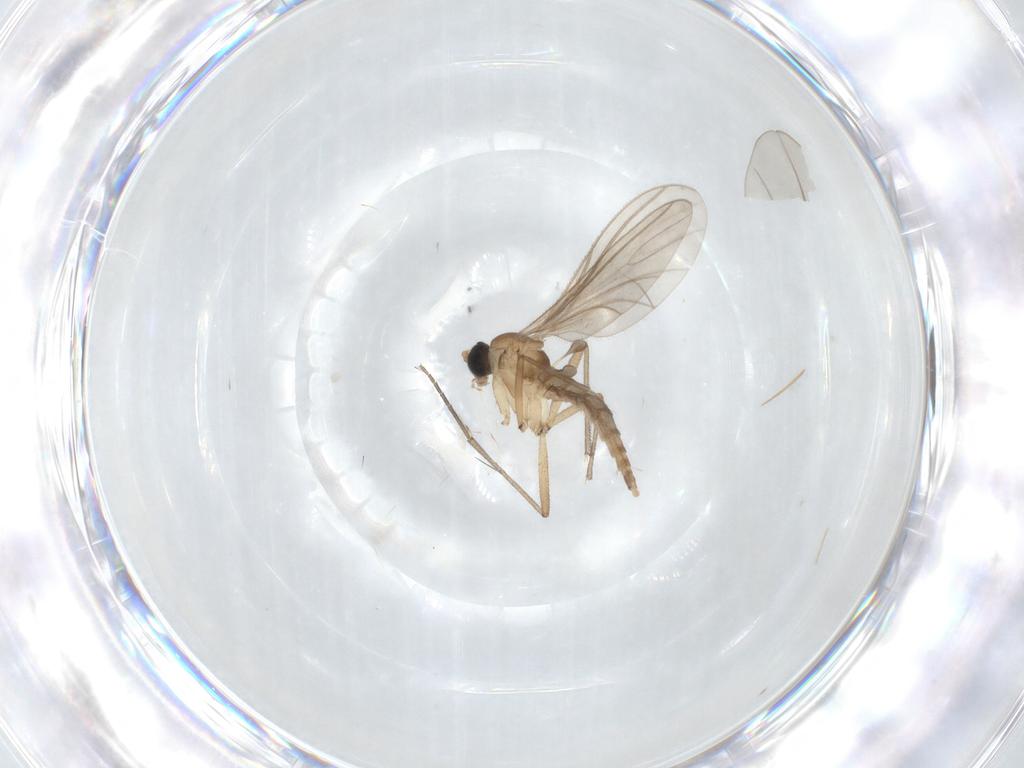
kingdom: Animalia
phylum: Arthropoda
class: Insecta
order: Diptera
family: Sciaridae
